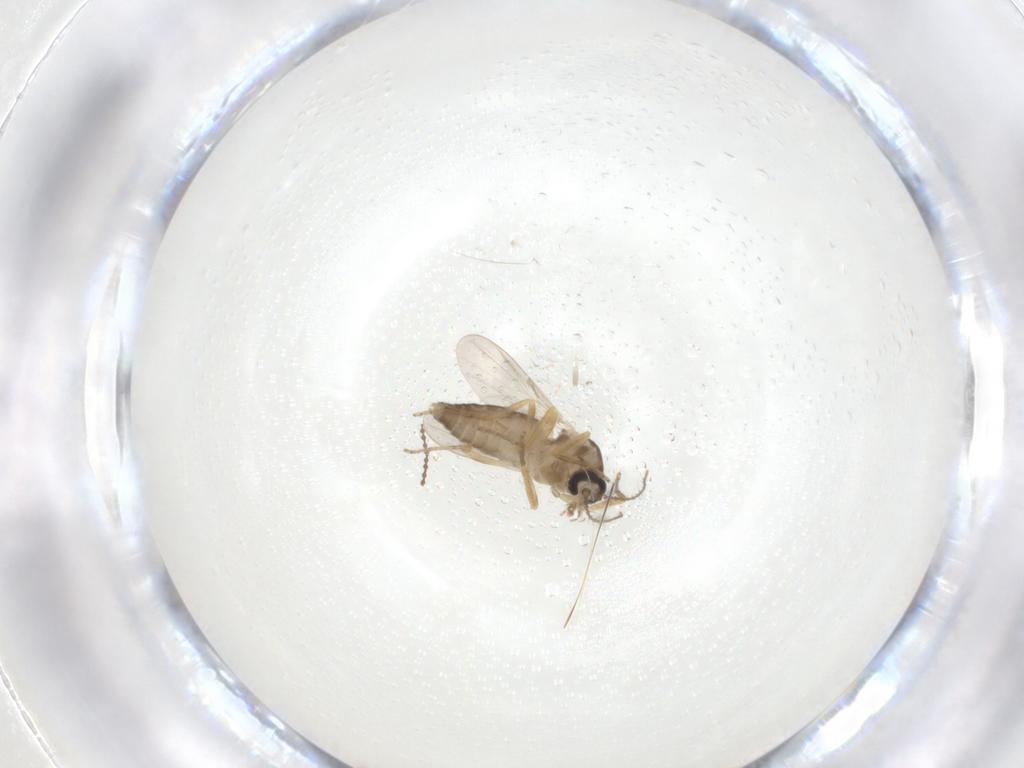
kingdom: Animalia
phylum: Arthropoda
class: Insecta
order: Diptera
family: Ceratopogonidae
